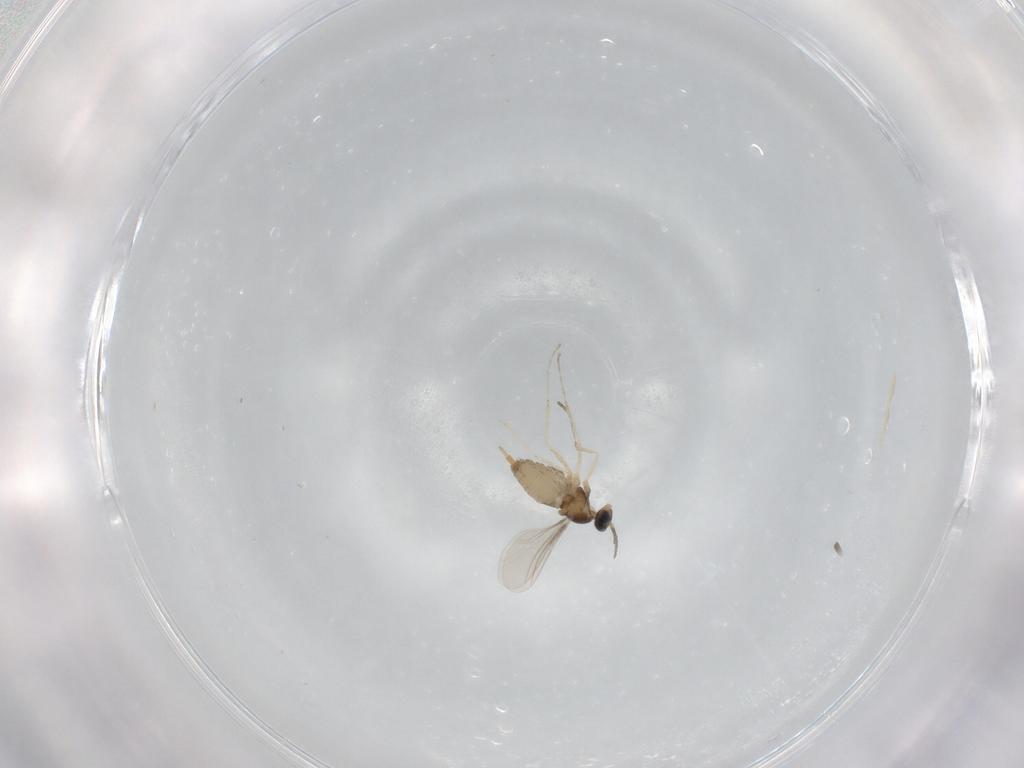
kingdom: Animalia
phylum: Arthropoda
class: Insecta
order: Diptera
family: Cecidomyiidae
